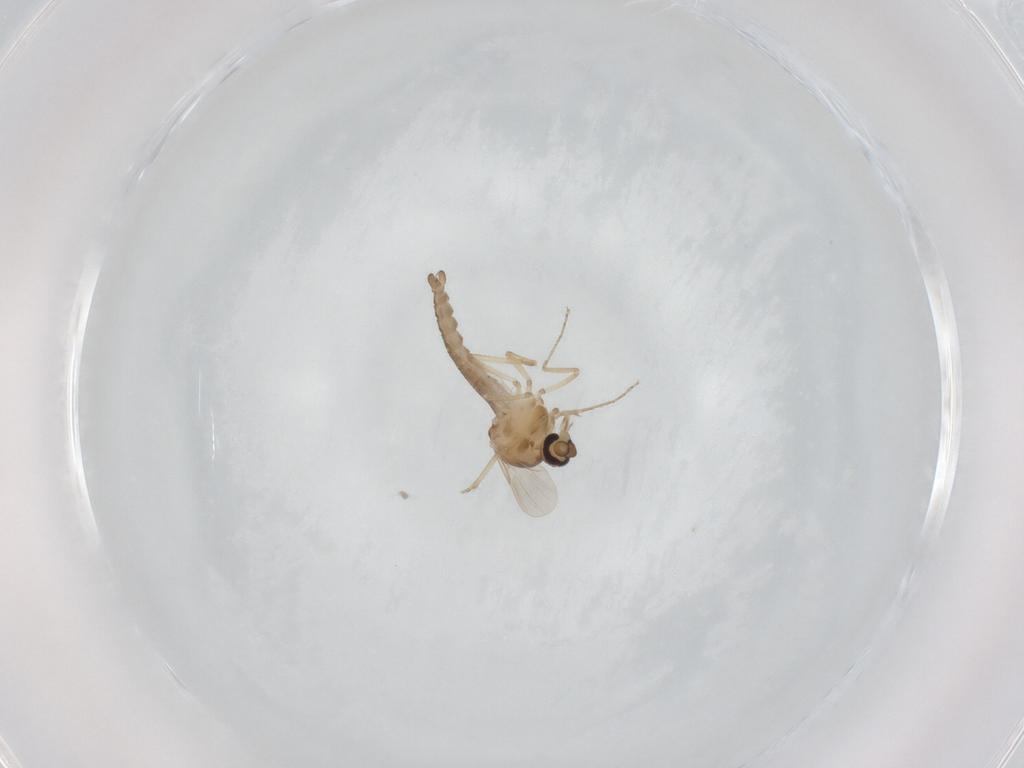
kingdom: Animalia
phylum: Arthropoda
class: Insecta
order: Diptera
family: Ceratopogonidae
